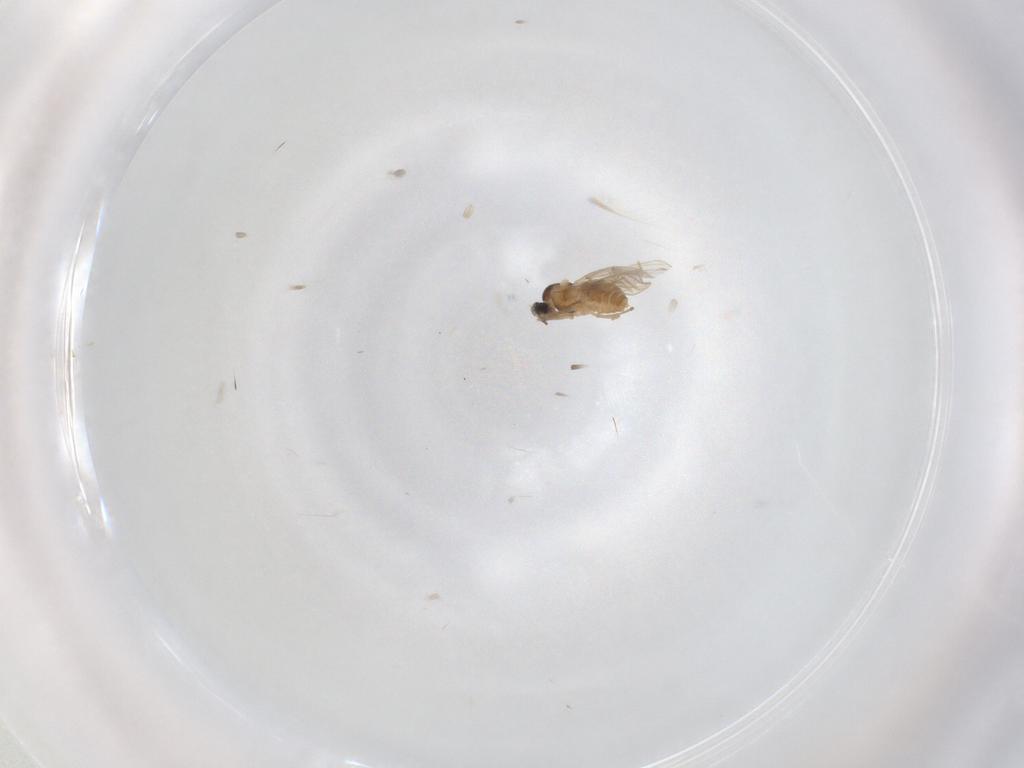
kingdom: Animalia
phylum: Arthropoda
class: Insecta
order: Diptera
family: Cecidomyiidae
